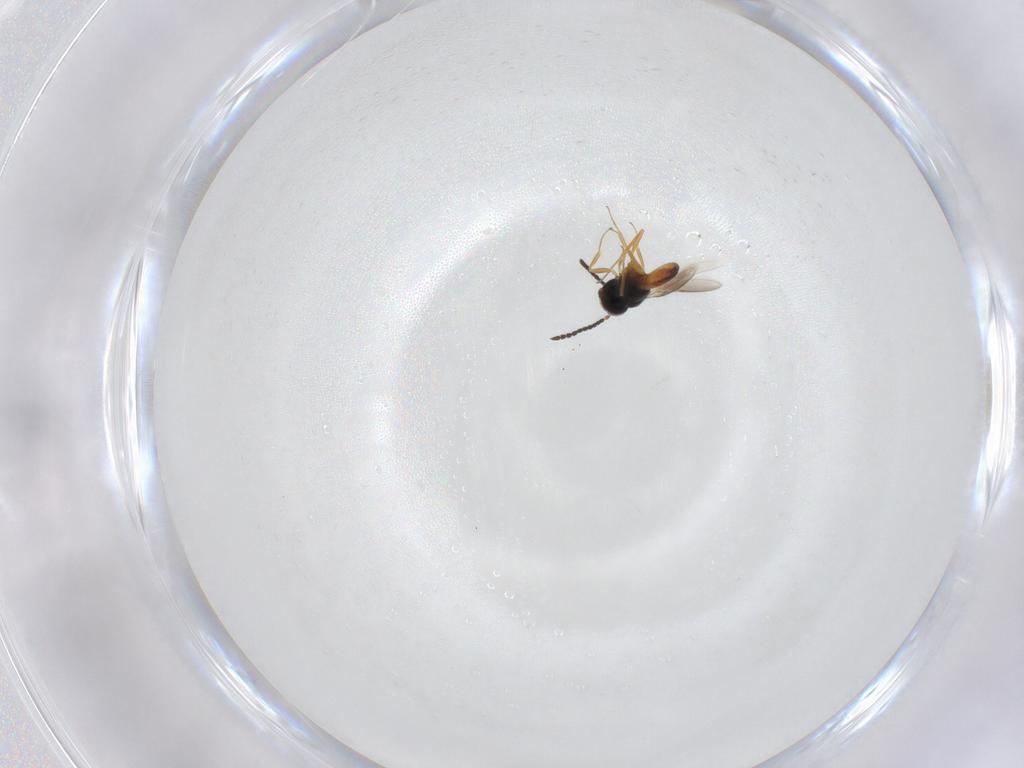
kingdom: Animalia
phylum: Arthropoda
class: Insecta
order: Hymenoptera
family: Scelionidae
